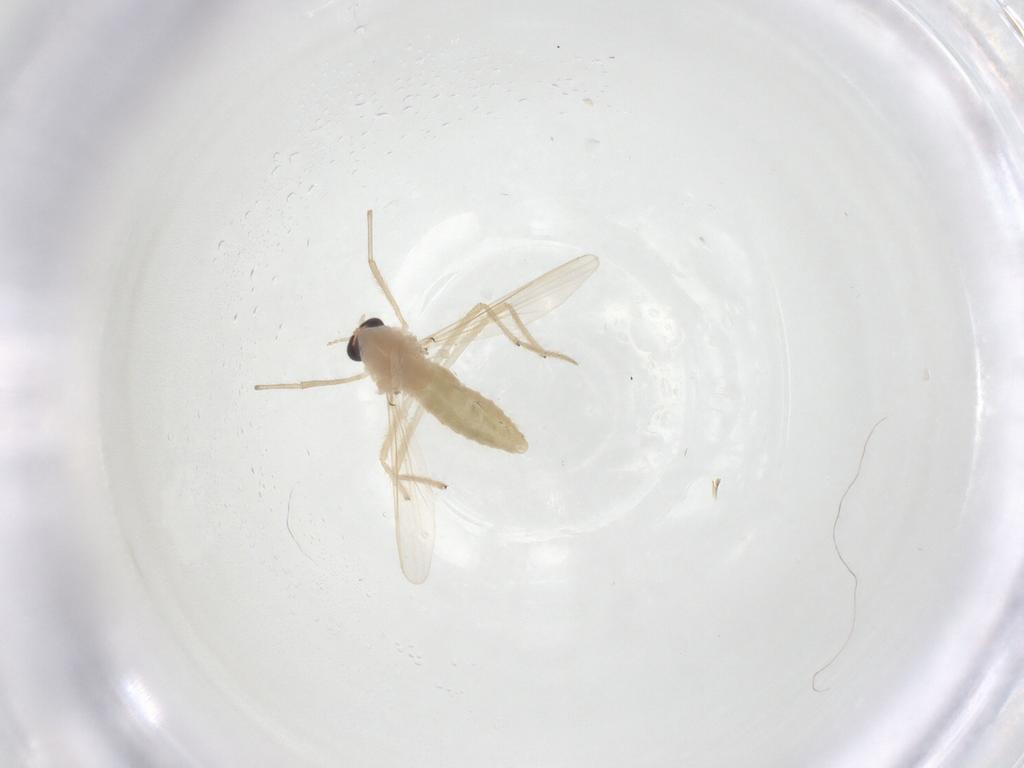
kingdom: Animalia
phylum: Arthropoda
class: Insecta
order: Diptera
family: Chironomidae
